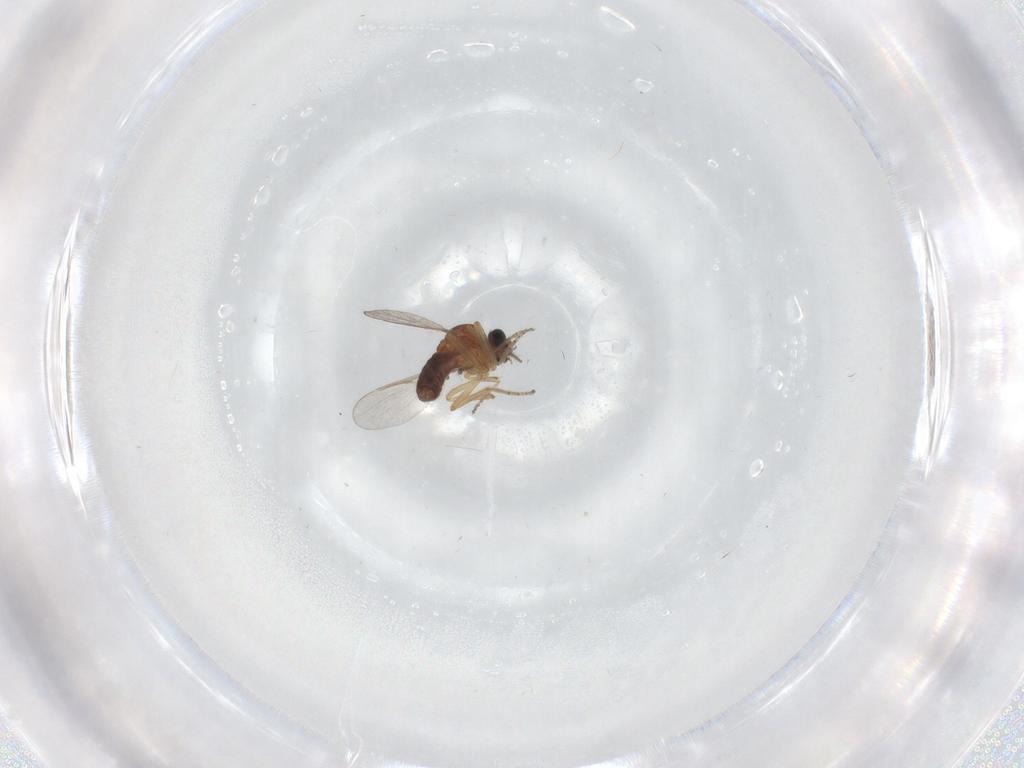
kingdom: Animalia
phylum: Arthropoda
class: Insecta
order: Diptera
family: Ceratopogonidae
